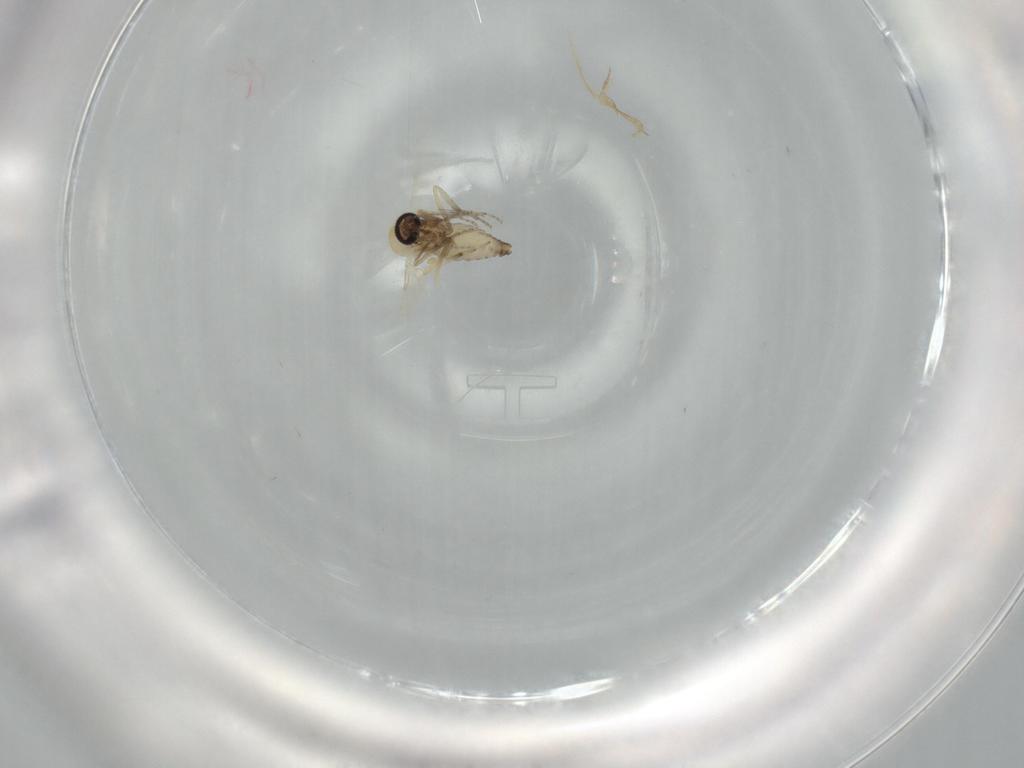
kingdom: Animalia
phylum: Arthropoda
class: Insecta
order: Diptera
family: Ceratopogonidae
